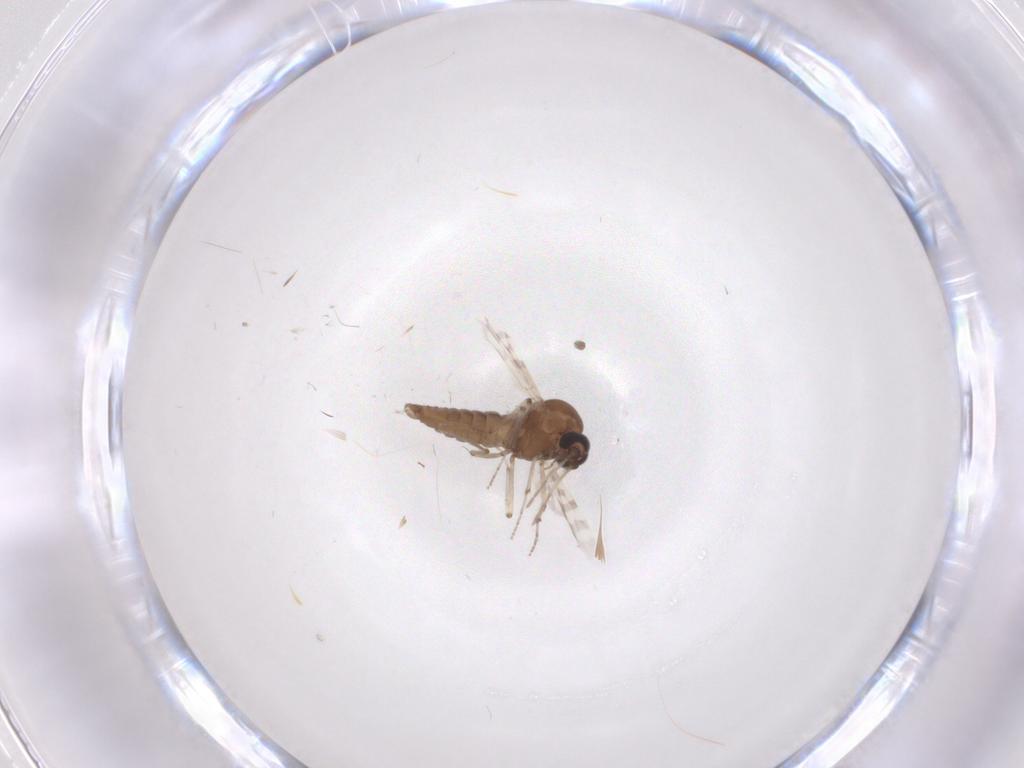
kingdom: Animalia
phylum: Arthropoda
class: Insecta
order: Diptera
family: Chironomidae
